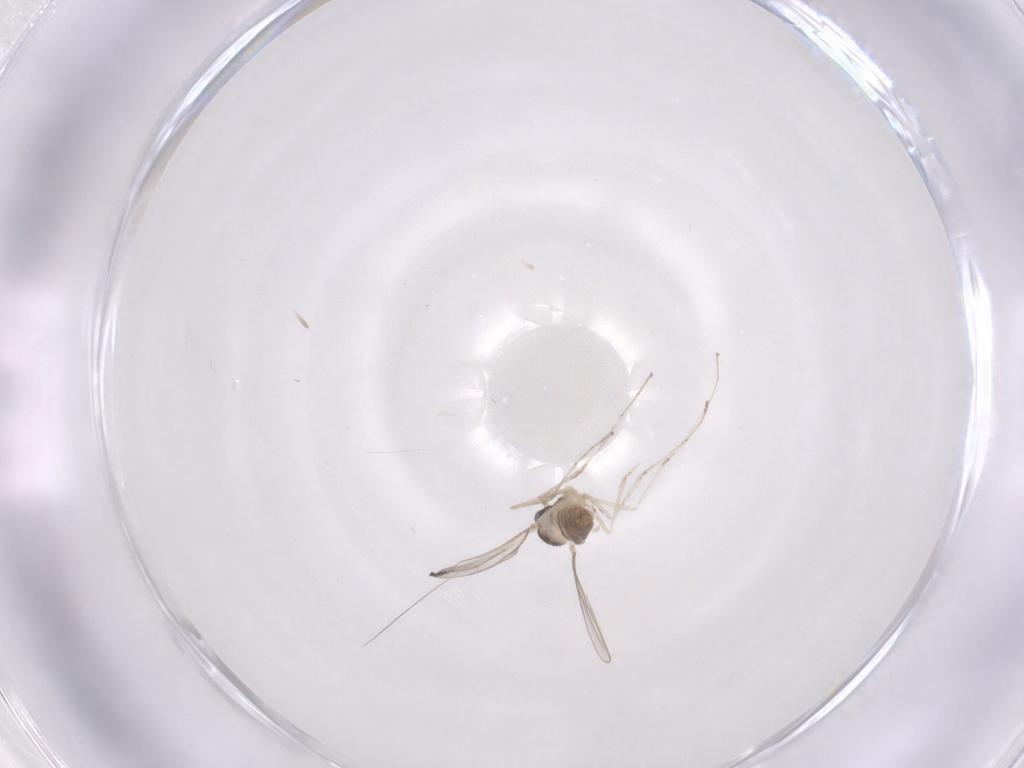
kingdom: Animalia
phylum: Arthropoda
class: Insecta
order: Diptera
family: Cecidomyiidae
